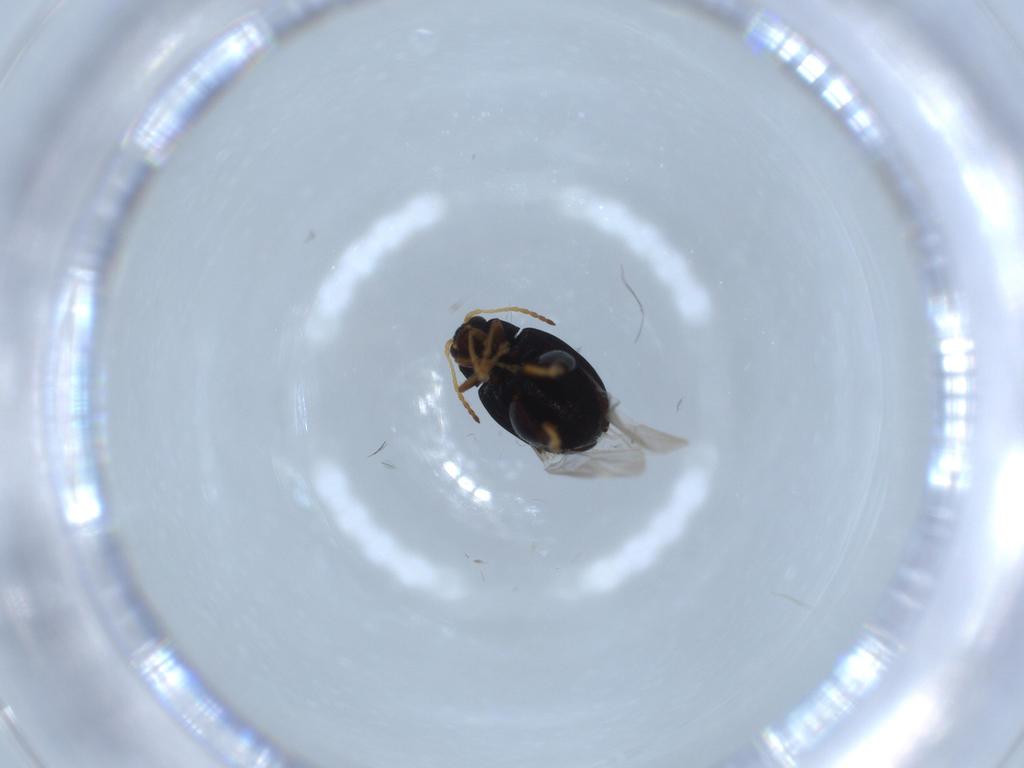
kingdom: Animalia
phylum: Arthropoda
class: Insecta
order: Coleoptera
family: Chrysomelidae
